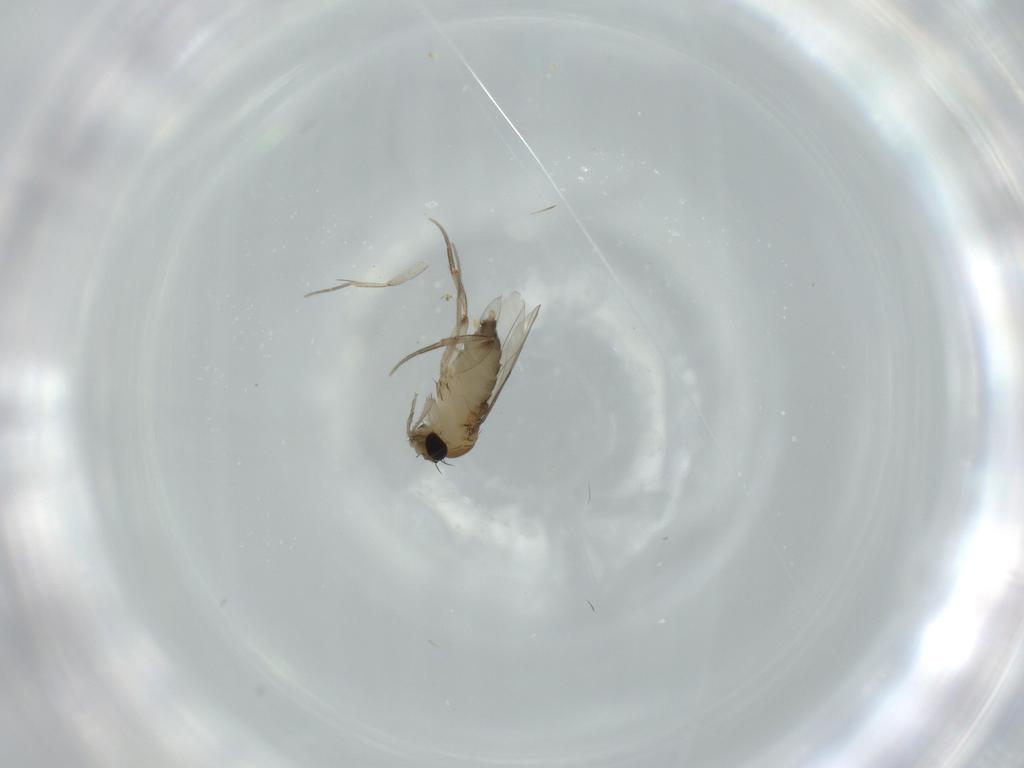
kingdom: Animalia
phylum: Arthropoda
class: Insecta
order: Diptera
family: Phoridae
